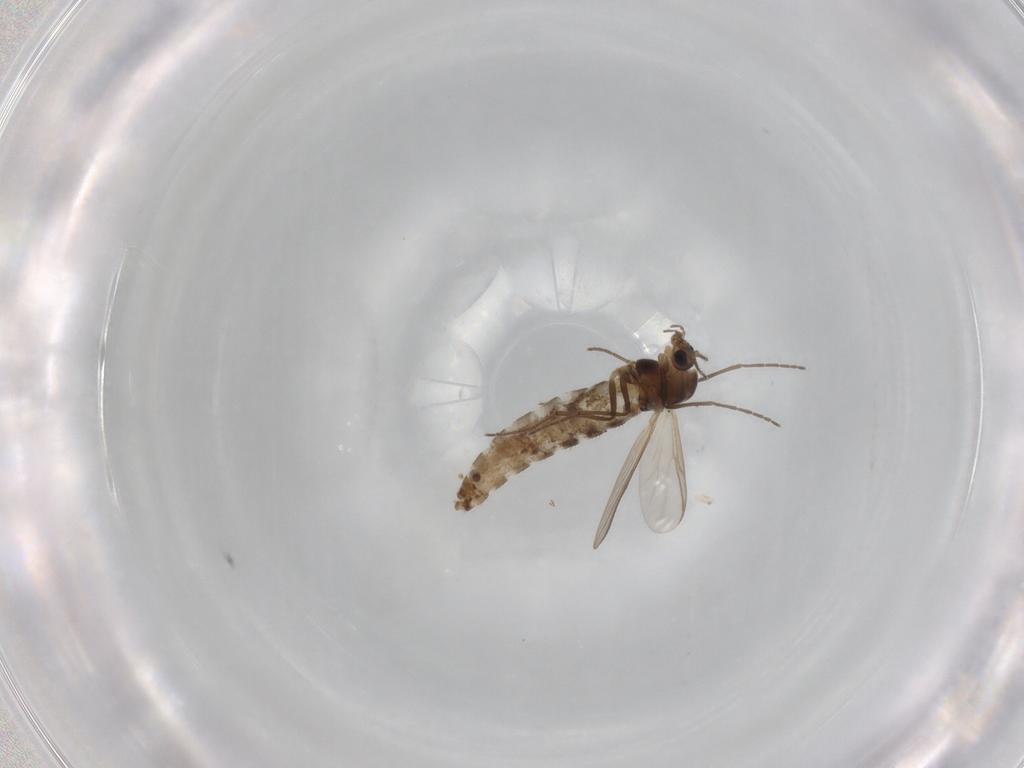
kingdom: Animalia
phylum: Arthropoda
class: Insecta
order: Diptera
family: Chironomidae
